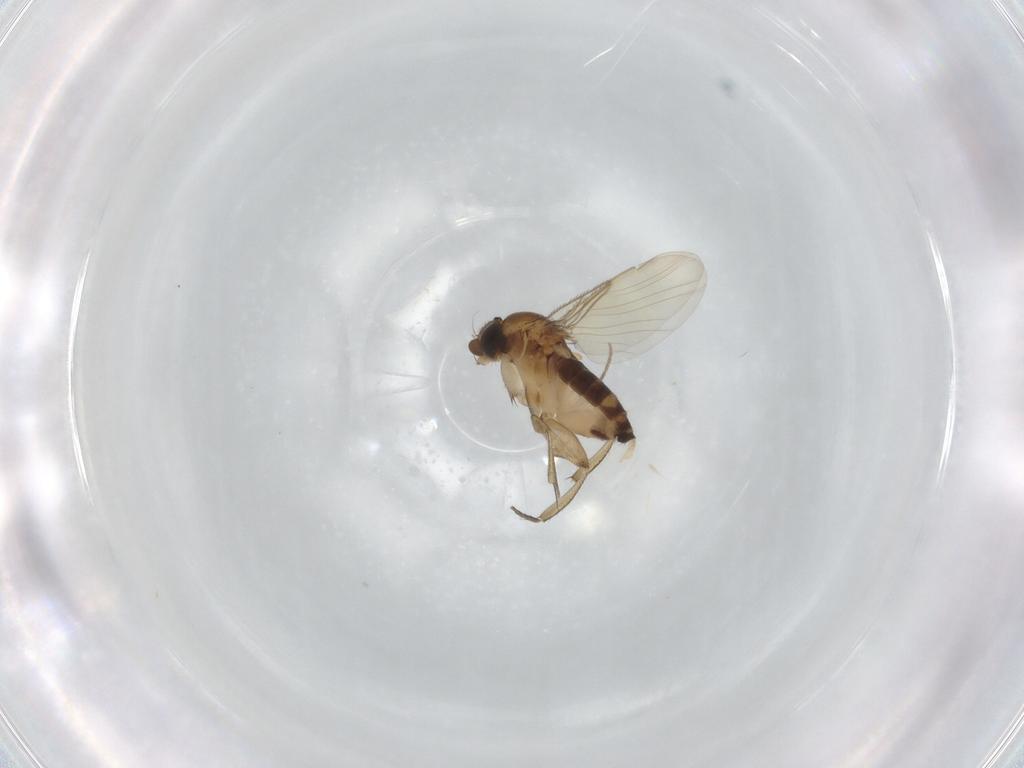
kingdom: Animalia
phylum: Arthropoda
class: Insecta
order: Diptera
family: Phoridae
